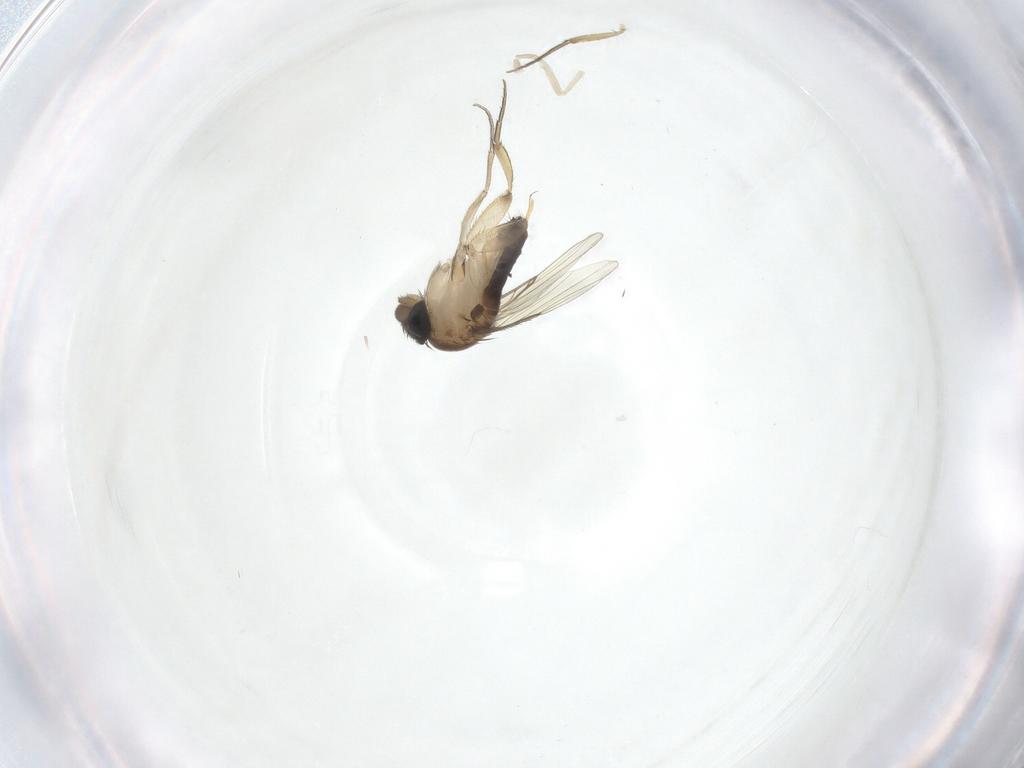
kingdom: Animalia
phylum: Arthropoda
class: Insecta
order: Diptera
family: Phoridae
